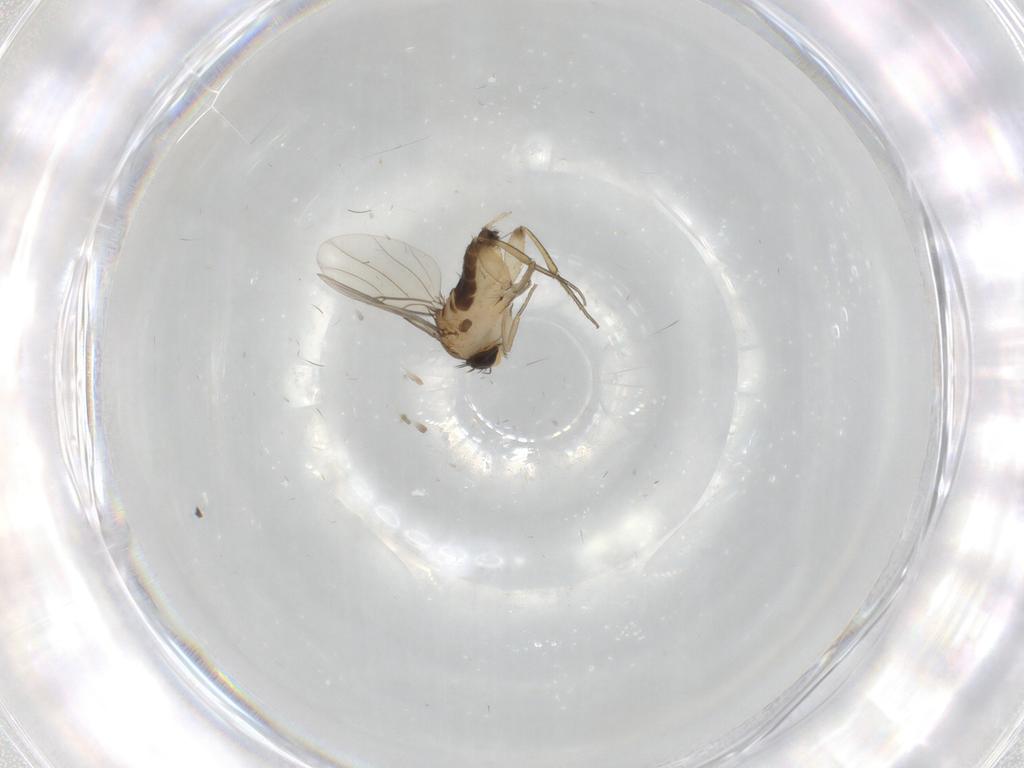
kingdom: Animalia
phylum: Arthropoda
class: Insecta
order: Diptera
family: Phoridae
